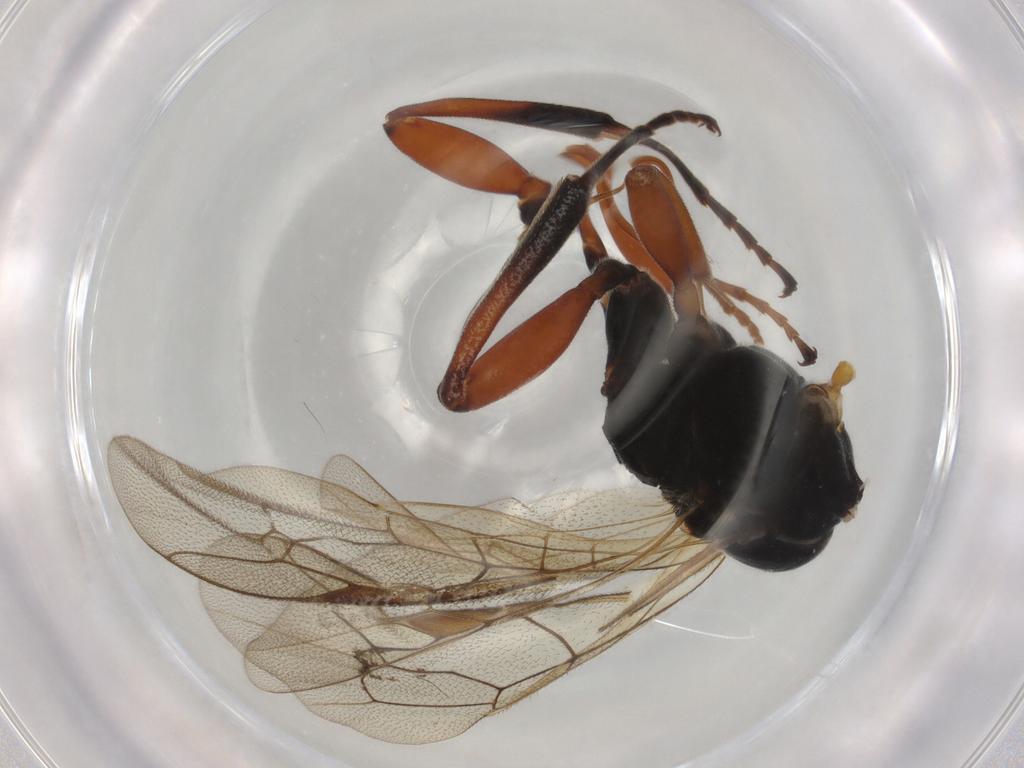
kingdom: Animalia
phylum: Arthropoda
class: Insecta
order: Hymenoptera
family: Ichneumonidae
